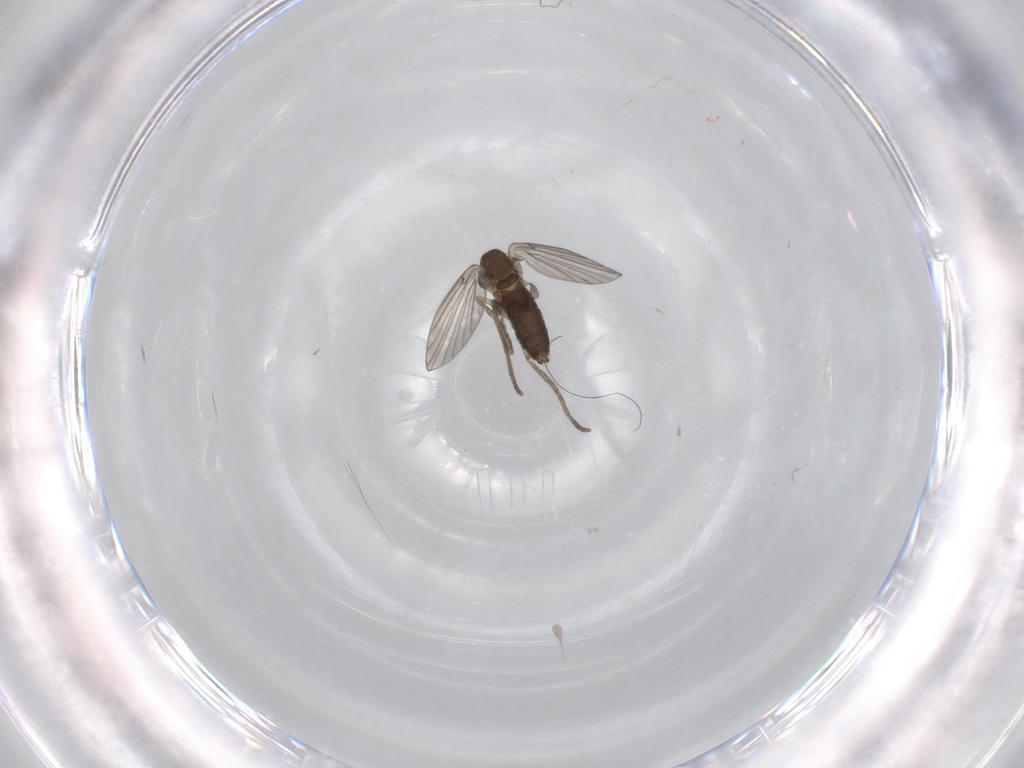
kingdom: Animalia
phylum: Arthropoda
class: Insecta
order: Diptera
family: Psychodidae
